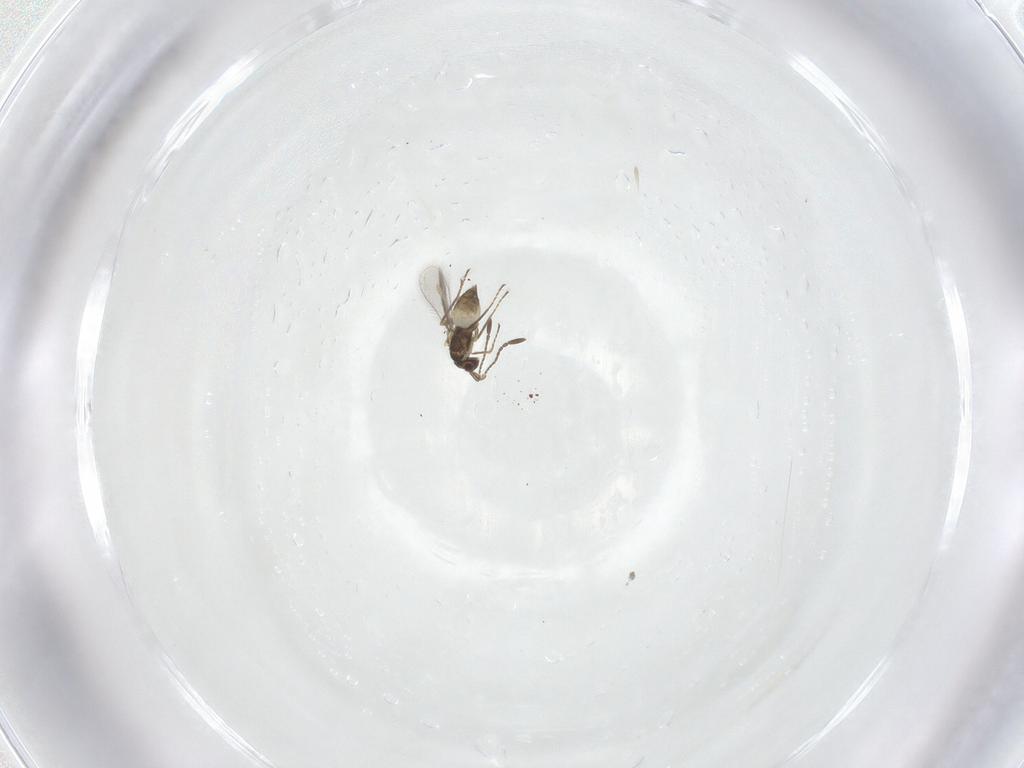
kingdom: Animalia
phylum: Arthropoda
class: Insecta
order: Hymenoptera
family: Mymaridae
